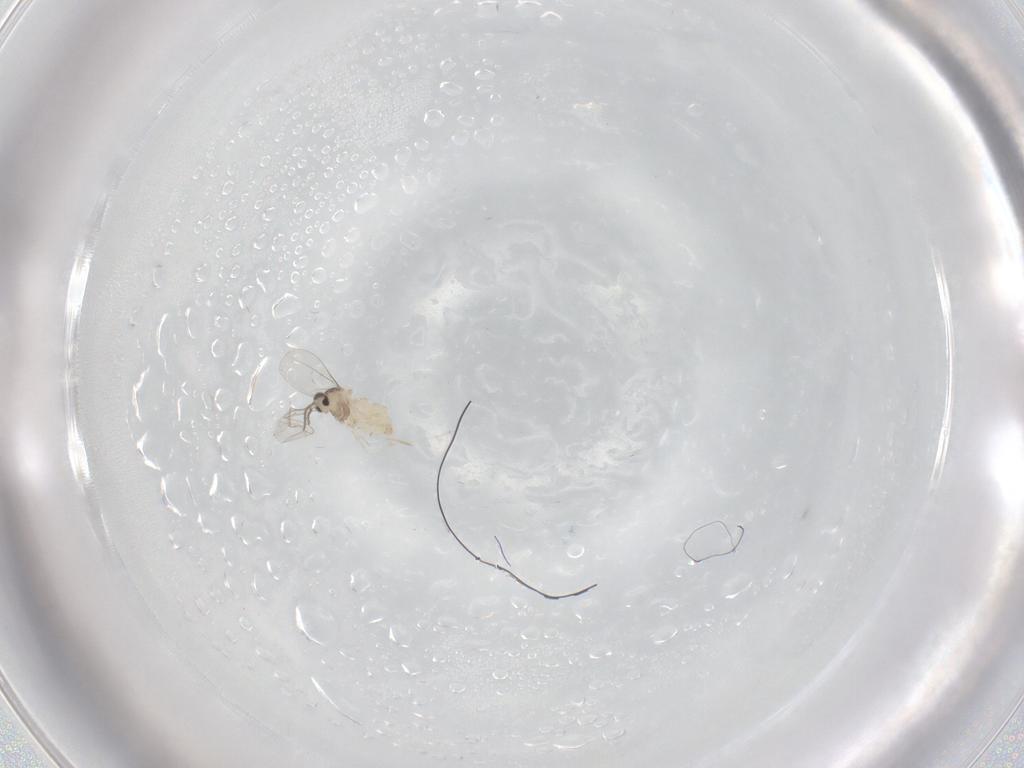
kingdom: Animalia
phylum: Arthropoda
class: Insecta
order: Diptera
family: Cecidomyiidae
